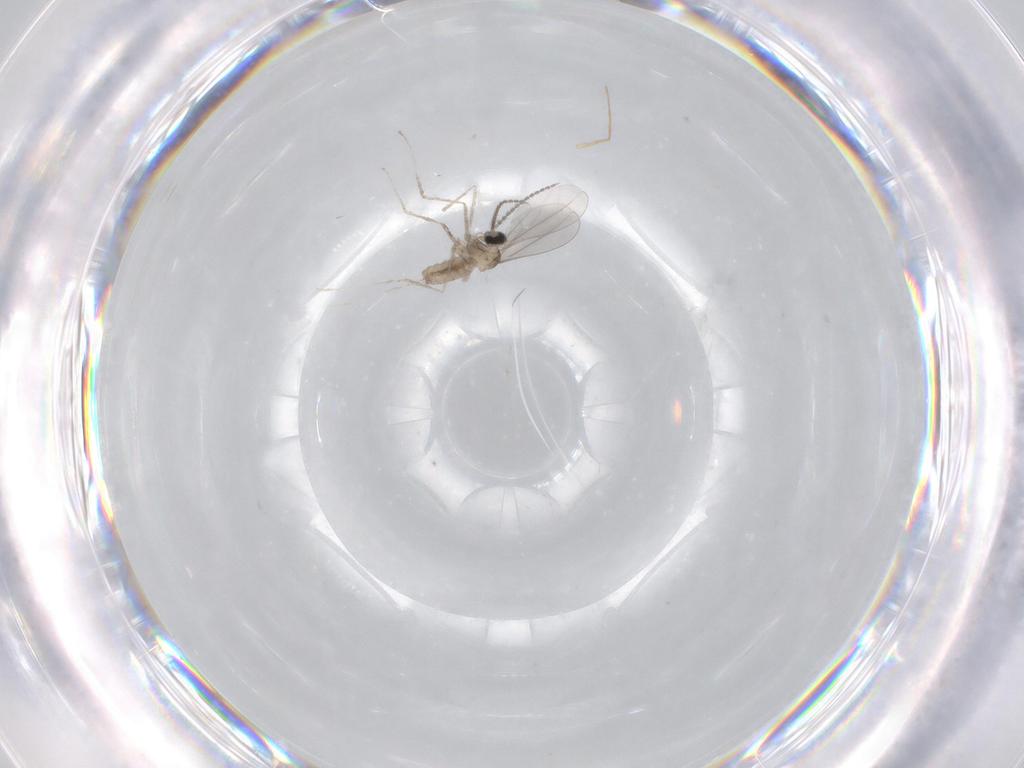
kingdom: Animalia
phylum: Arthropoda
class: Insecta
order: Diptera
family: Cecidomyiidae
